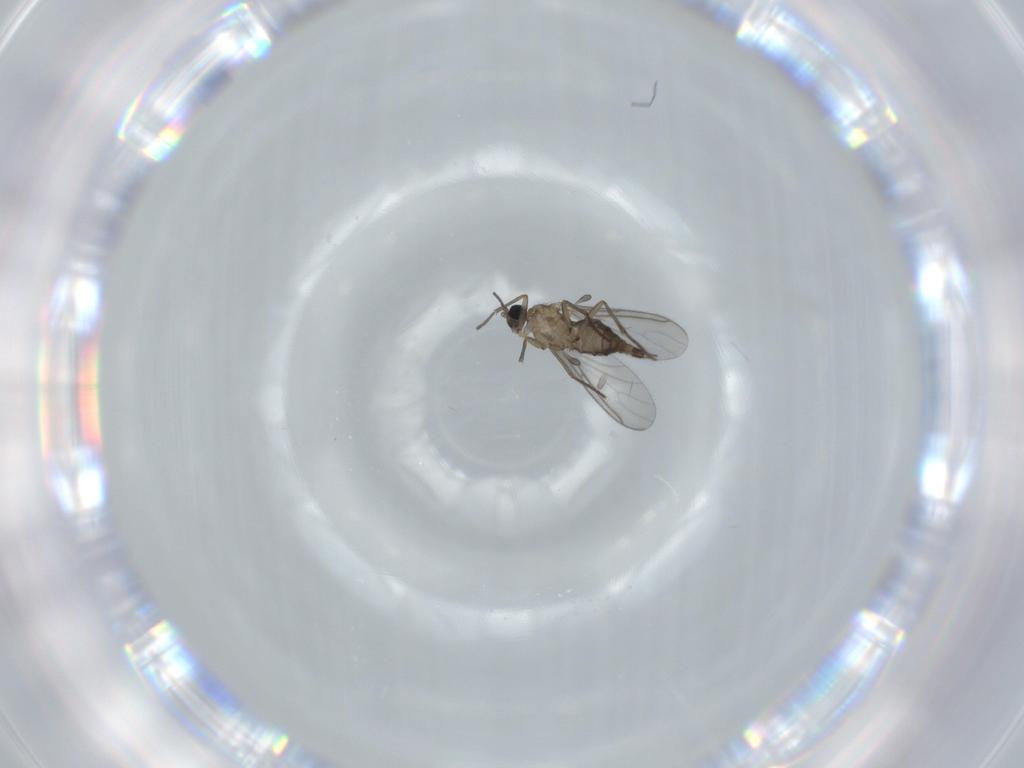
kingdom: Animalia
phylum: Arthropoda
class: Insecta
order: Diptera
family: Sciaridae
